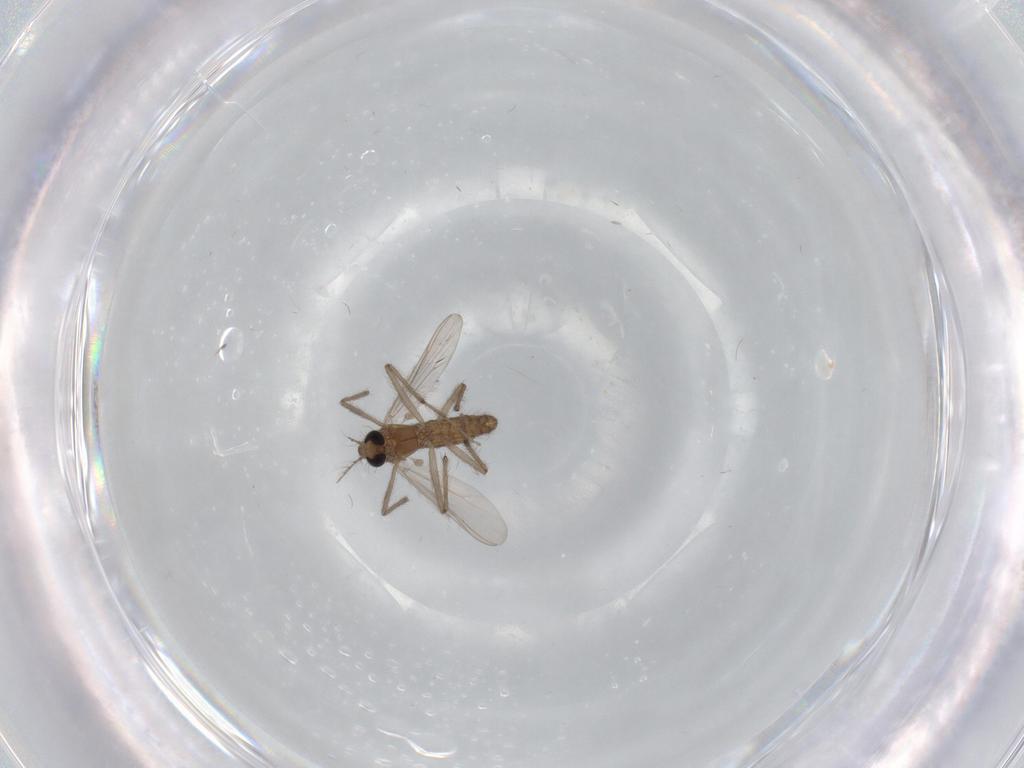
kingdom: Animalia
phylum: Arthropoda
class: Insecta
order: Diptera
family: Chironomidae
